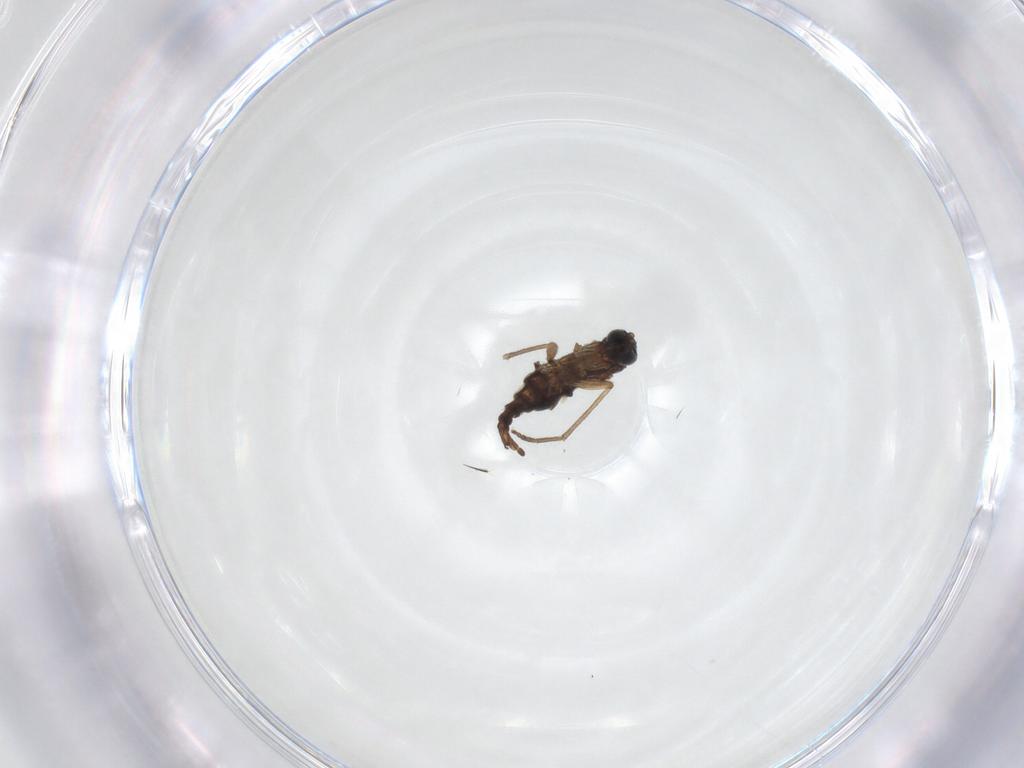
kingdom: Animalia
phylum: Arthropoda
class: Insecta
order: Diptera
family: Sciaridae
